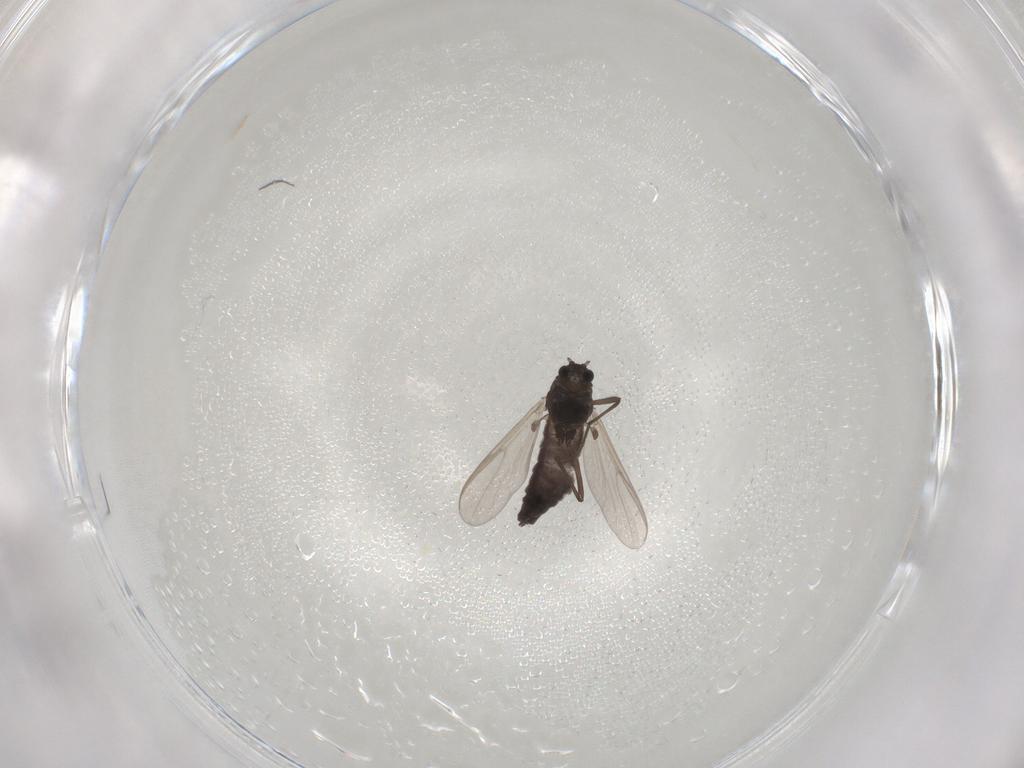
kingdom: Animalia
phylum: Arthropoda
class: Insecta
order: Diptera
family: Chironomidae
